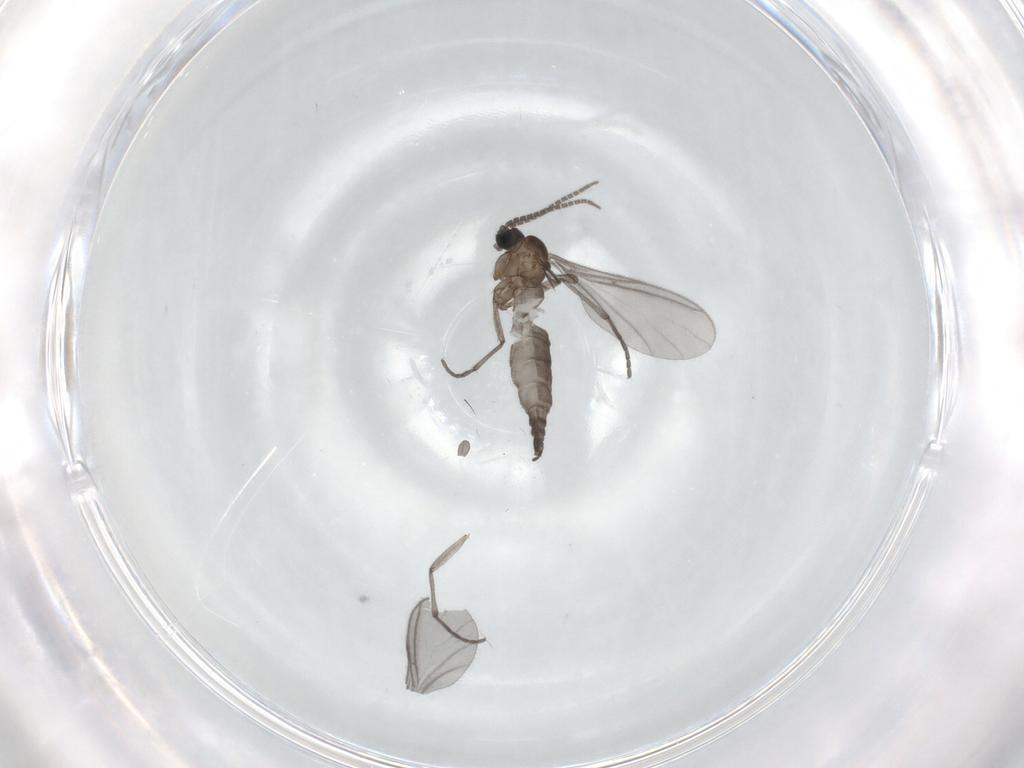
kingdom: Animalia
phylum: Arthropoda
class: Insecta
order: Diptera
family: Sciaridae
